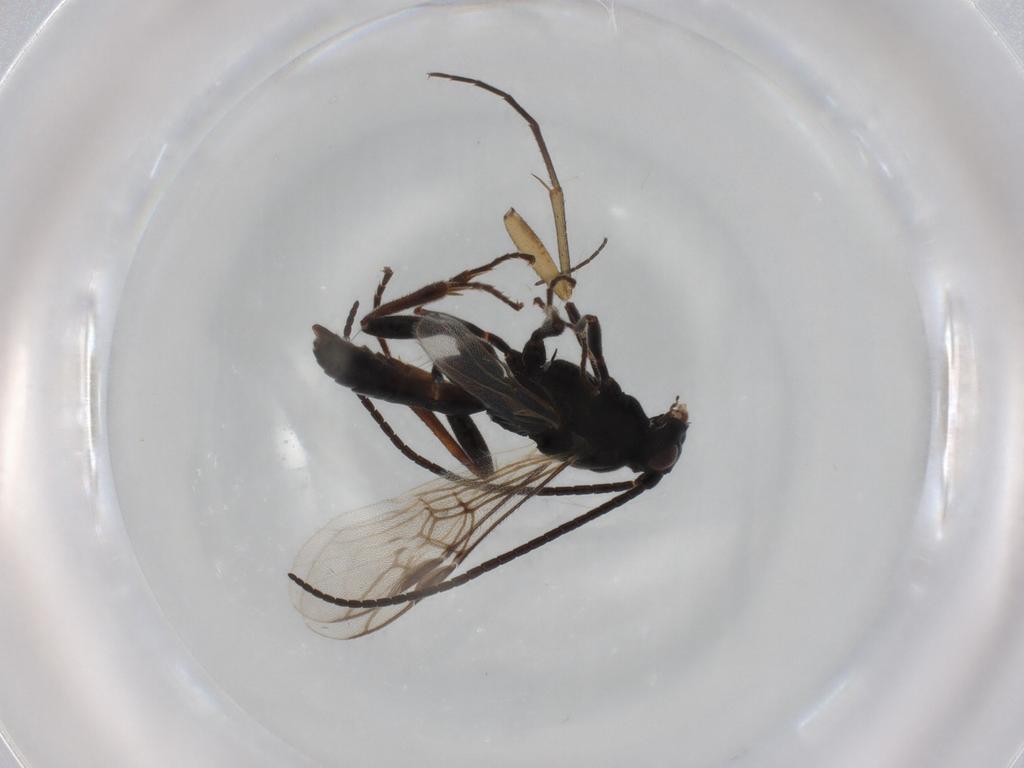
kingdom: Animalia
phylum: Arthropoda
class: Insecta
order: Hymenoptera
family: Braconidae
